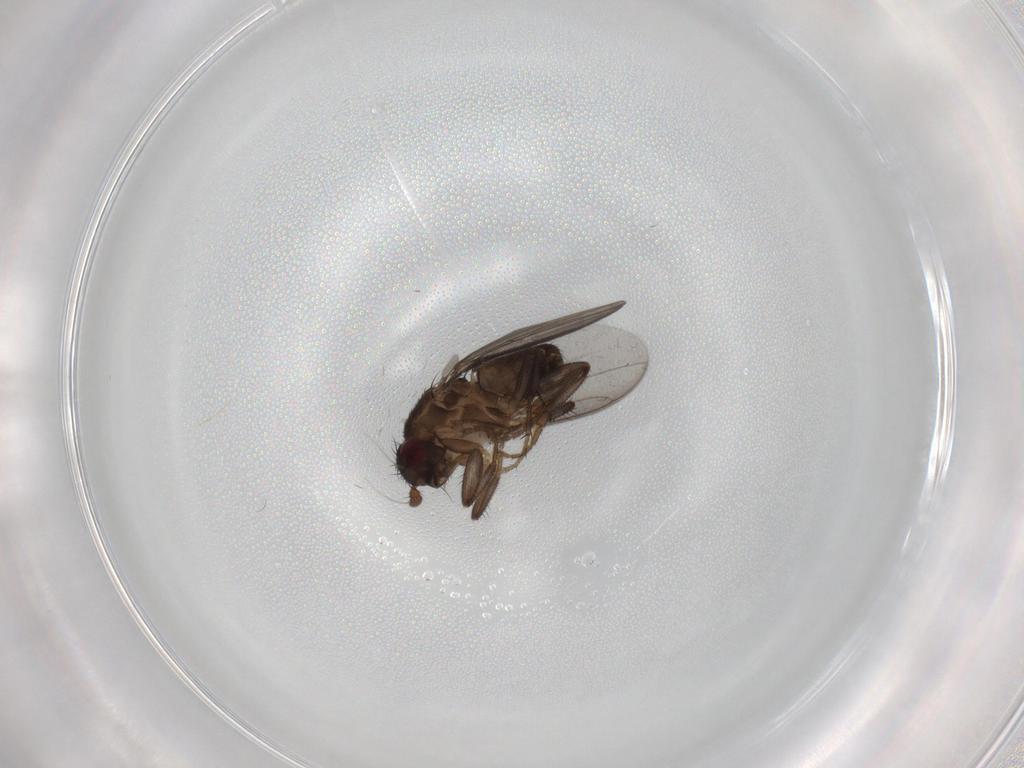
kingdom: Animalia
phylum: Arthropoda
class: Insecta
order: Diptera
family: Sphaeroceridae
